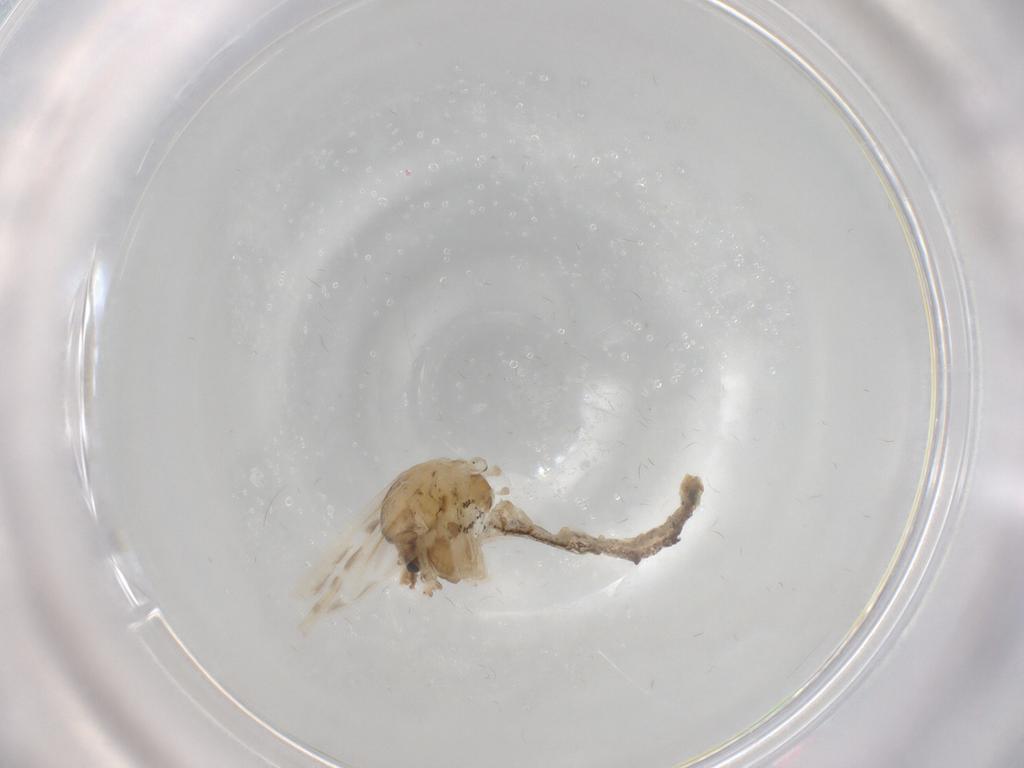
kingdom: Animalia
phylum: Arthropoda
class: Insecta
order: Diptera
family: Chaoboridae
